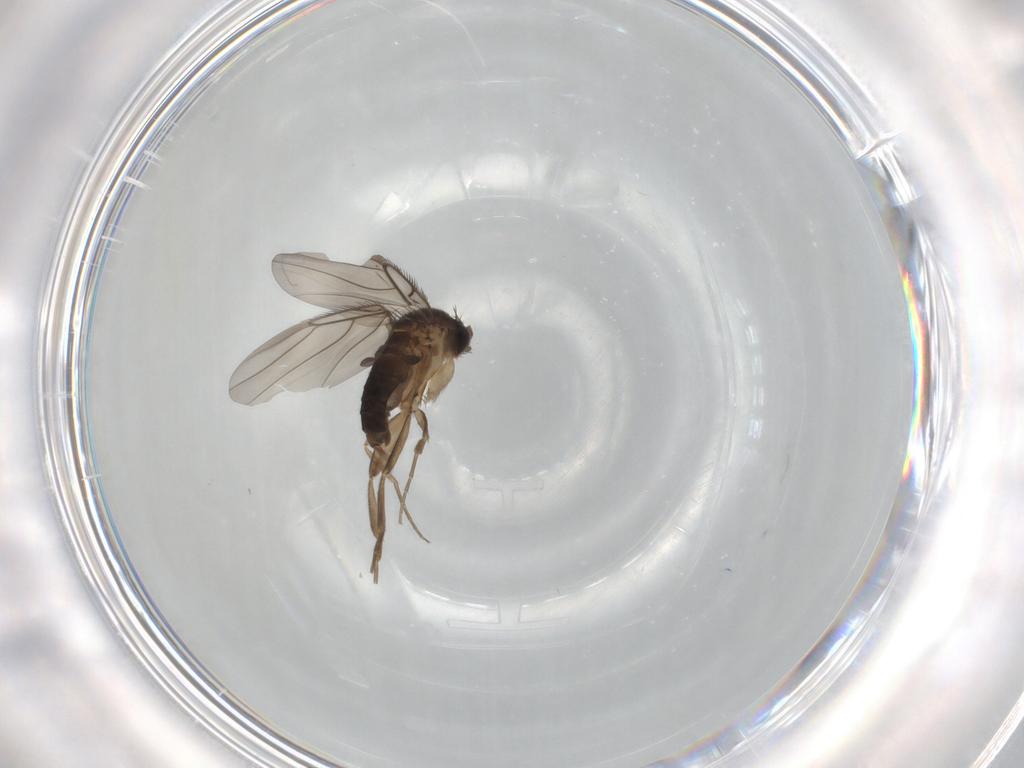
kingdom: Animalia
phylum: Arthropoda
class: Insecta
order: Diptera
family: Phoridae
